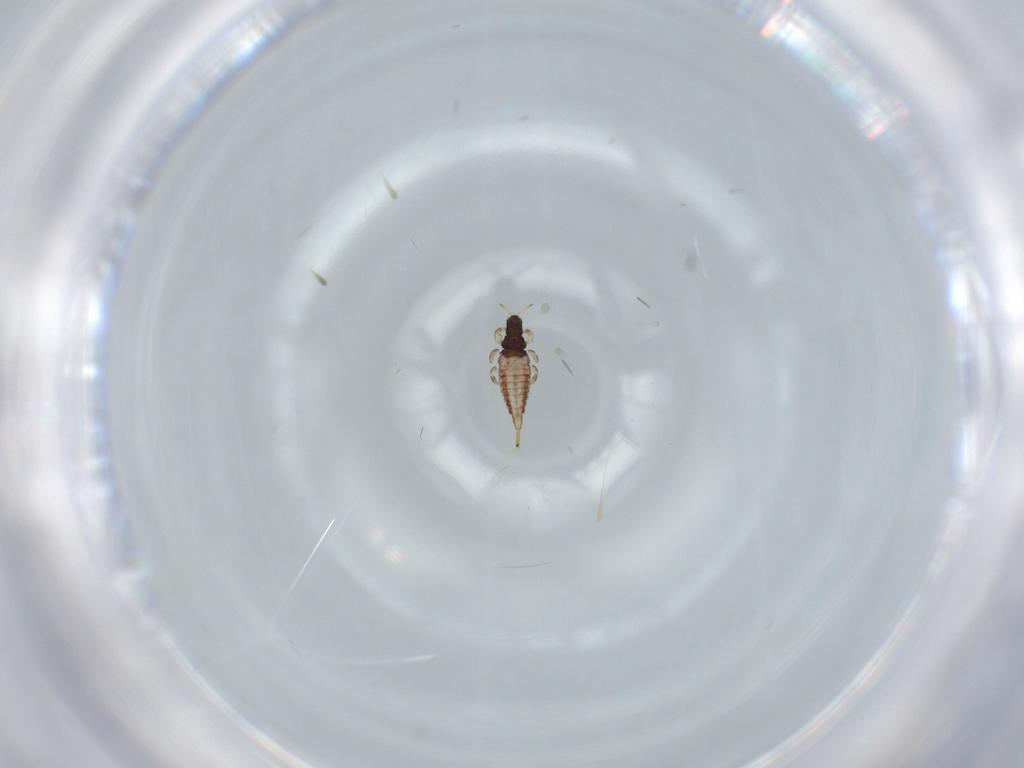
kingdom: Animalia
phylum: Arthropoda
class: Insecta
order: Thysanoptera
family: Phlaeothripidae
